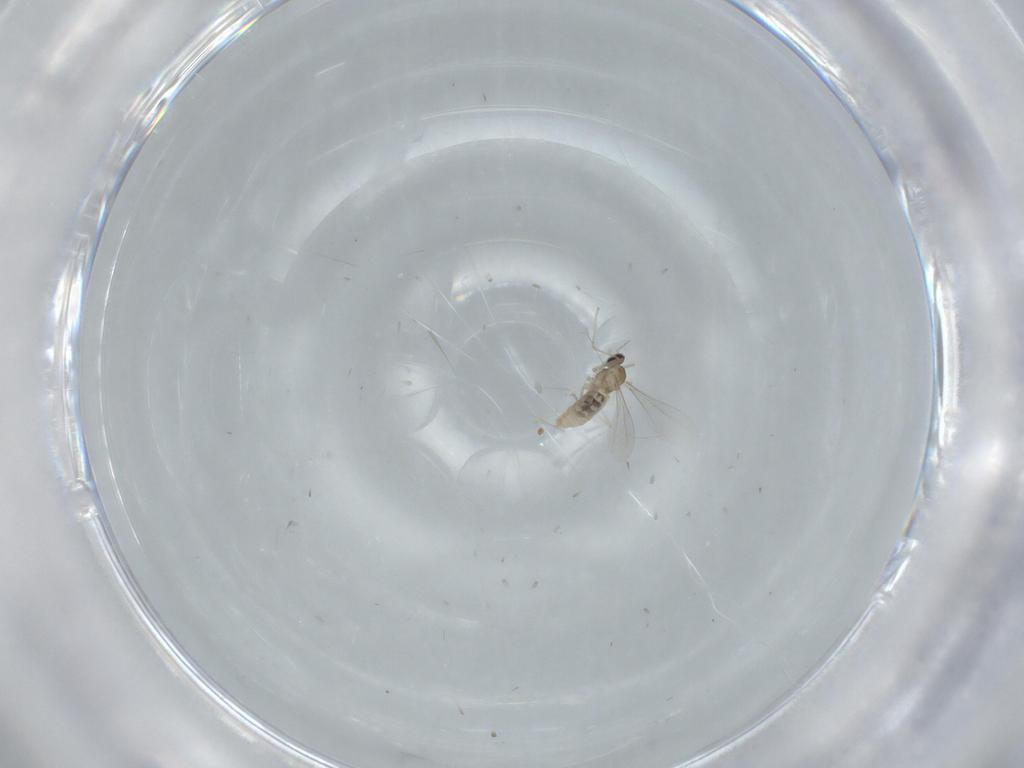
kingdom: Animalia
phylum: Arthropoda
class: Insecta
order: Diptera
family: Cecidomyiidae
